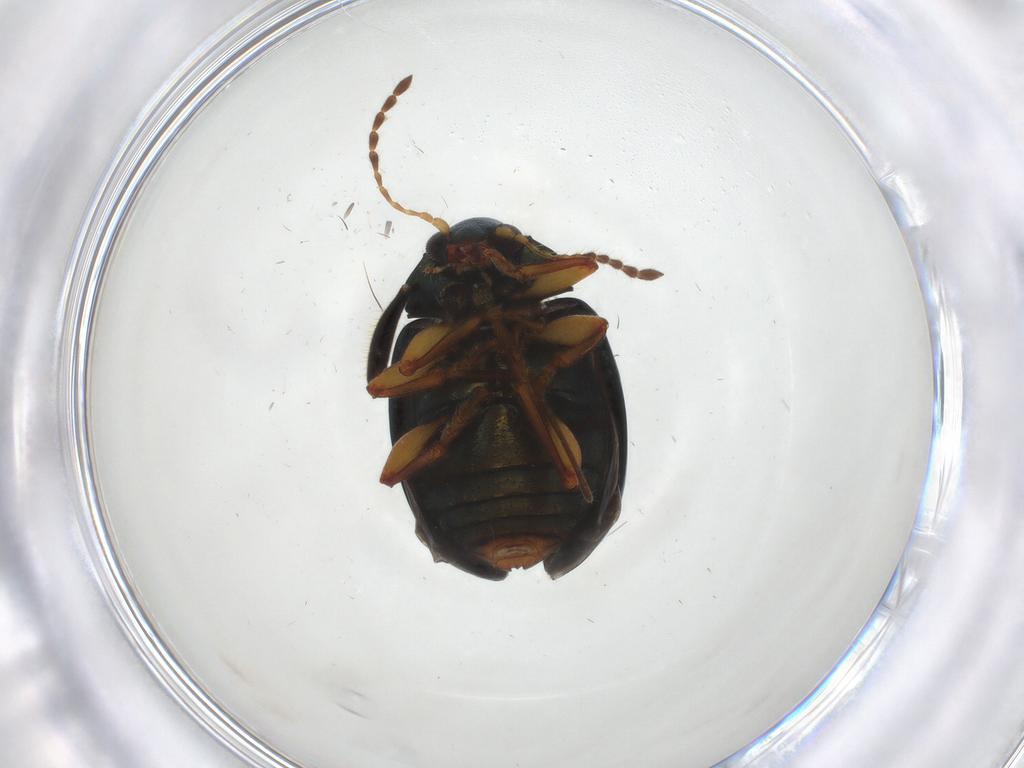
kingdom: Animalia
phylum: Arthropoda
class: Insecta
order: Coleoptera
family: Ptilodactylidae
